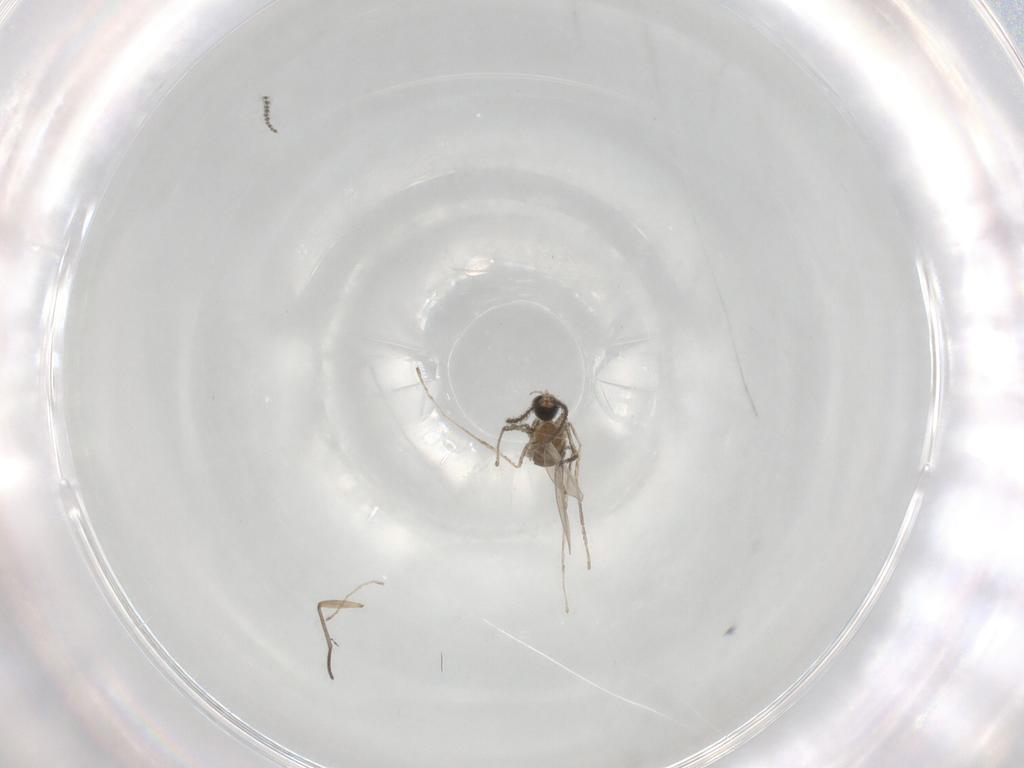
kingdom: Animalia
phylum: Arthropoda
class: Insecta
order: Diptera
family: Cecidomyiidae
